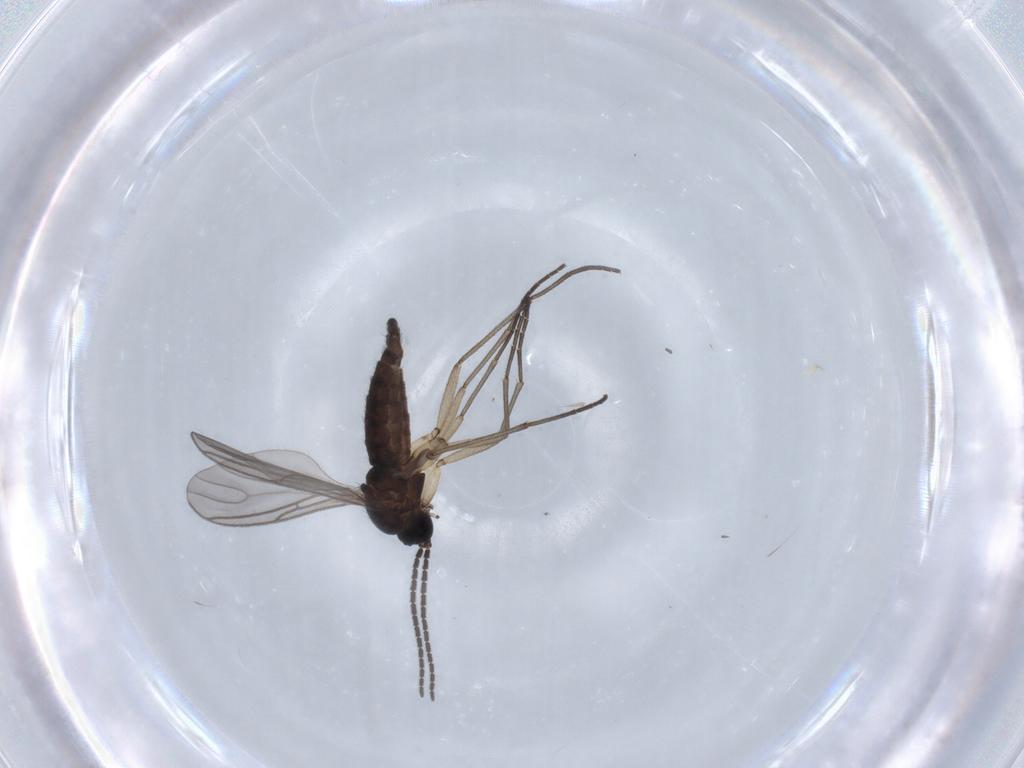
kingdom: Animalia
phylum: Arthropoda
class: Insecta
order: Diptera
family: Sciaridae
